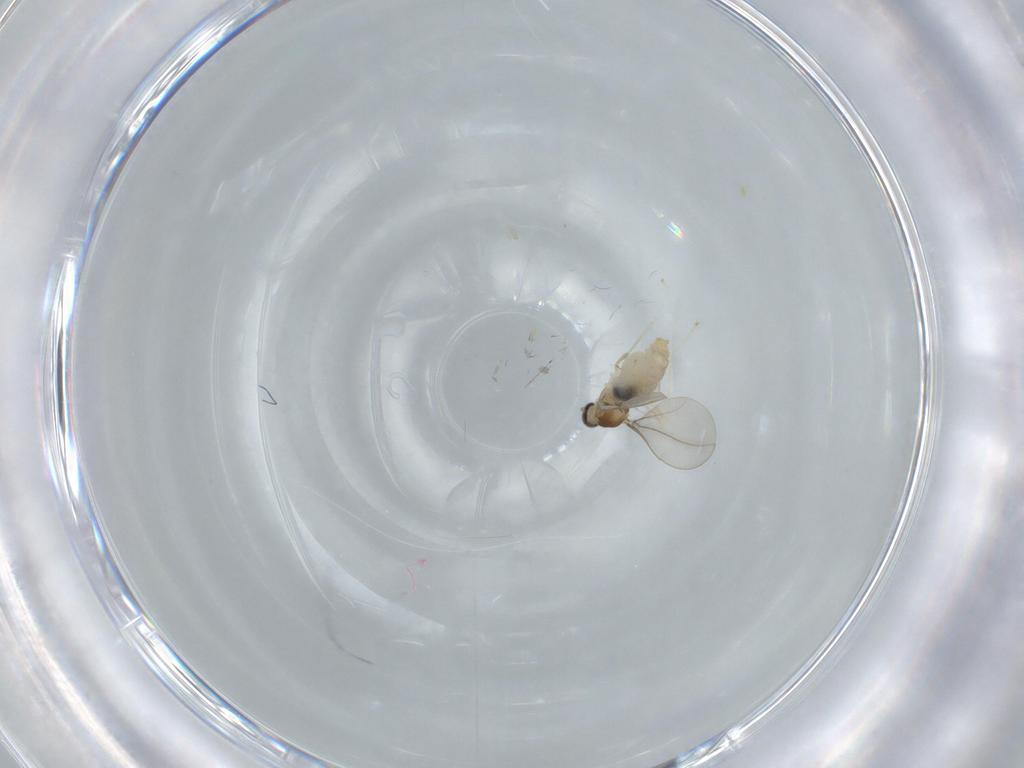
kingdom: Animalia
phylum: Arthropoda
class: Insecta
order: Diptera
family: Cecidomyiidae
